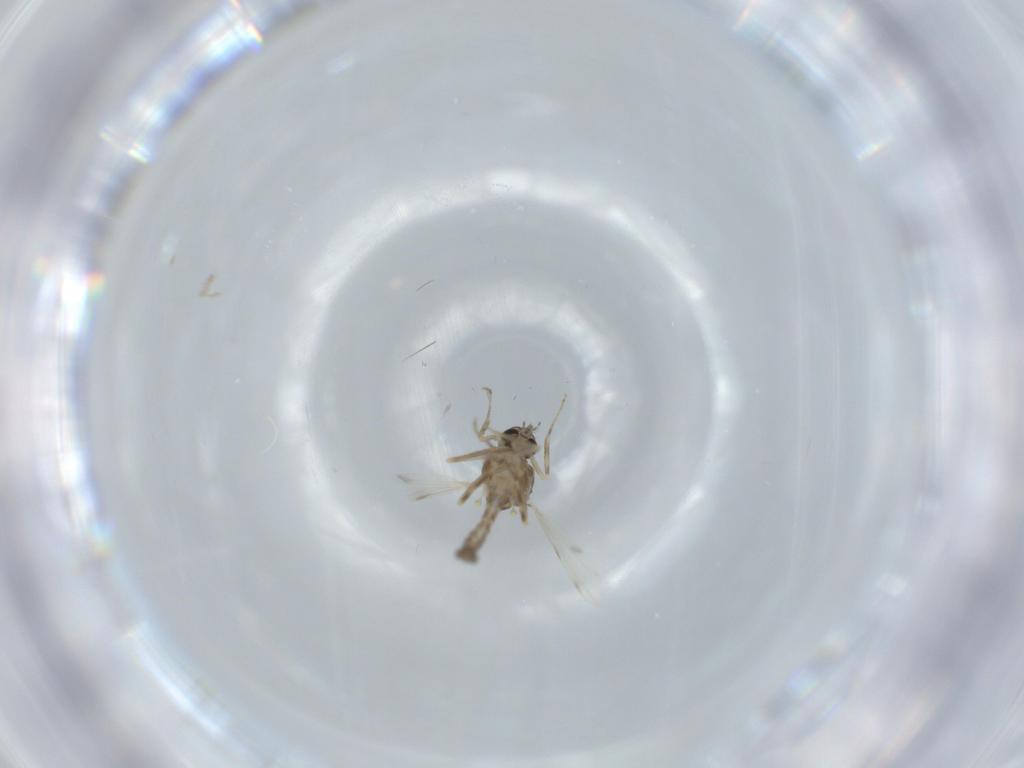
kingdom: Animalia
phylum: Arthropoda
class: Insecta
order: Diptera
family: Ceratopogonidae
